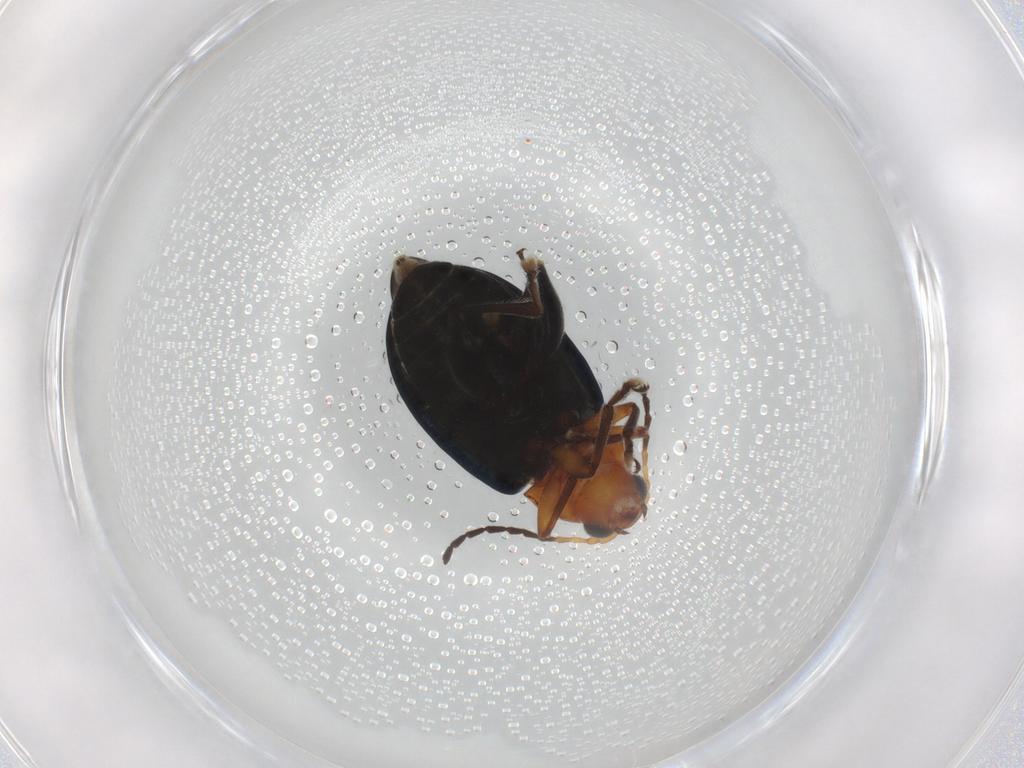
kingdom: Animalia
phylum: Arthropoda
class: Insecta
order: Coleoptera
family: Chrysomelidae
